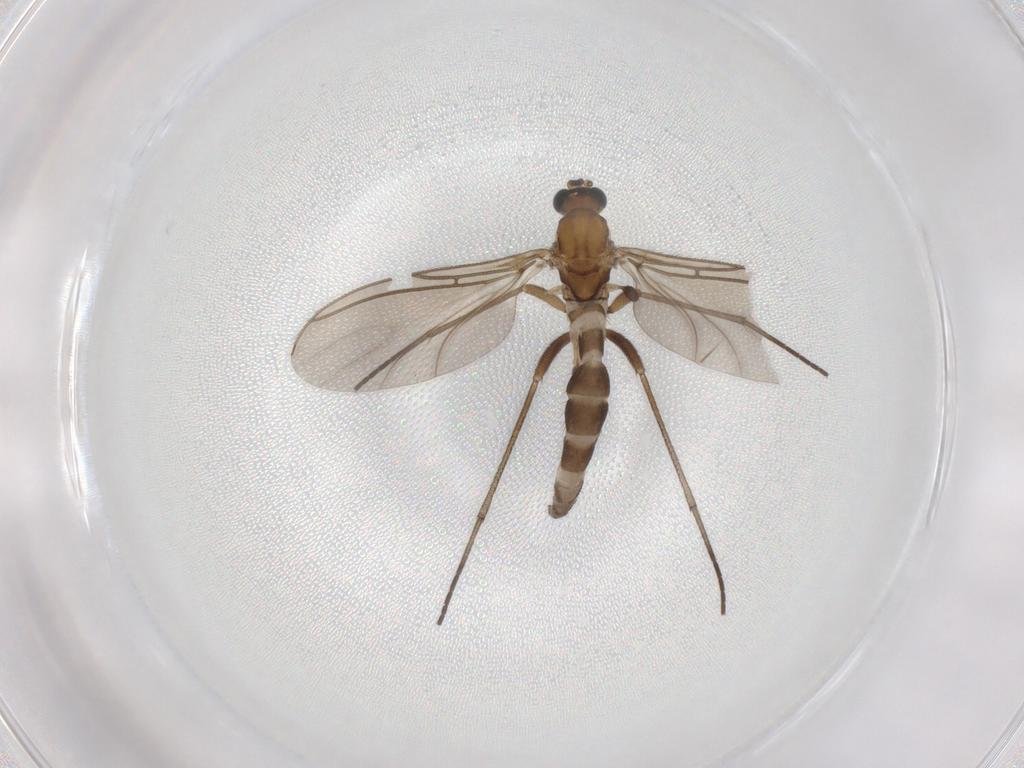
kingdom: Animalia
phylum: Arthropoda
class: Insecta
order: Diptera
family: Sciaridae
